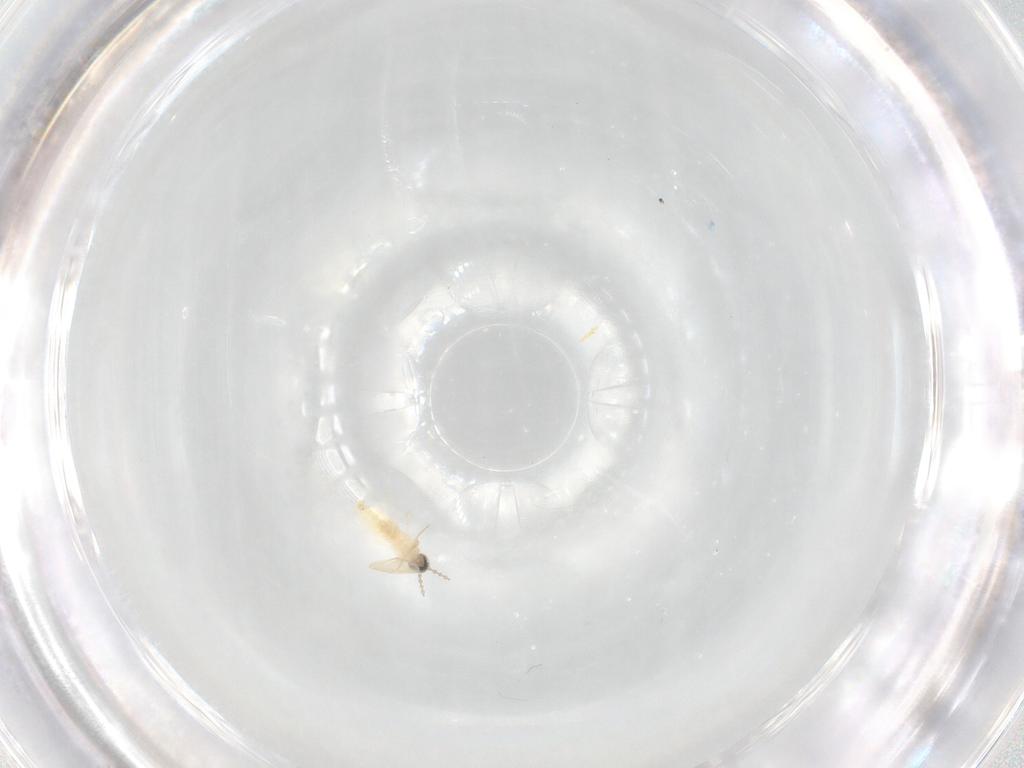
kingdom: Animalia
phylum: Arthropoda
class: Insecta
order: Diptera
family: Cecidomyiidae
